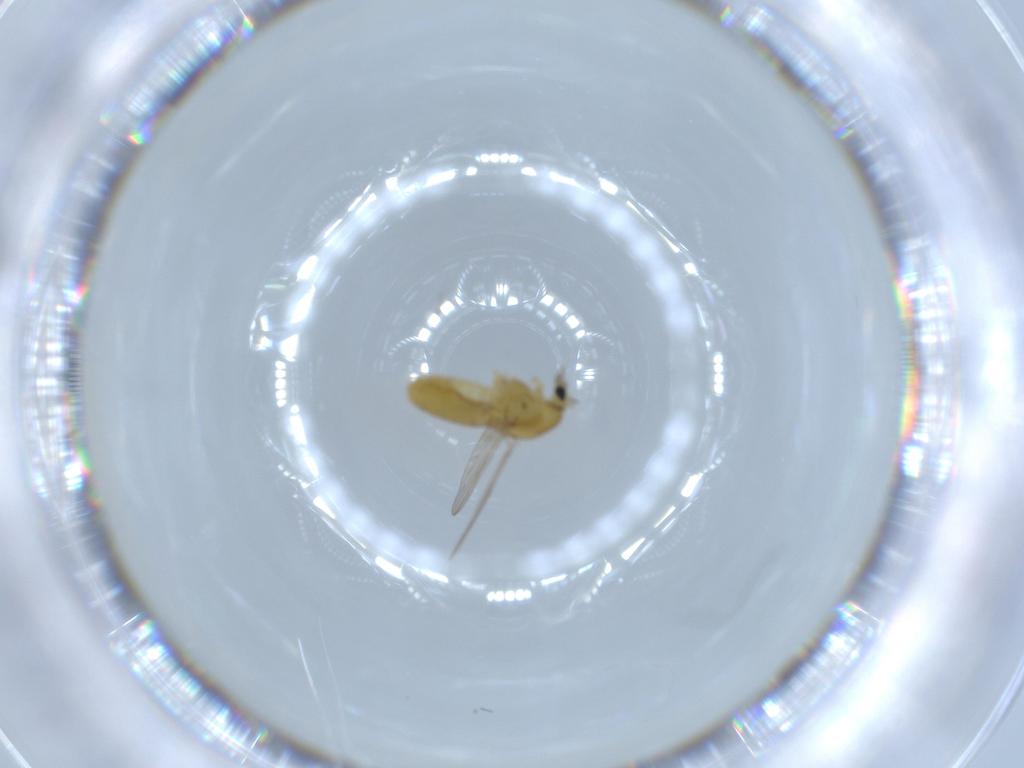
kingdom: Animalia
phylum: Arthropoda
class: Insecta
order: Diptera
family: Chironomidae
